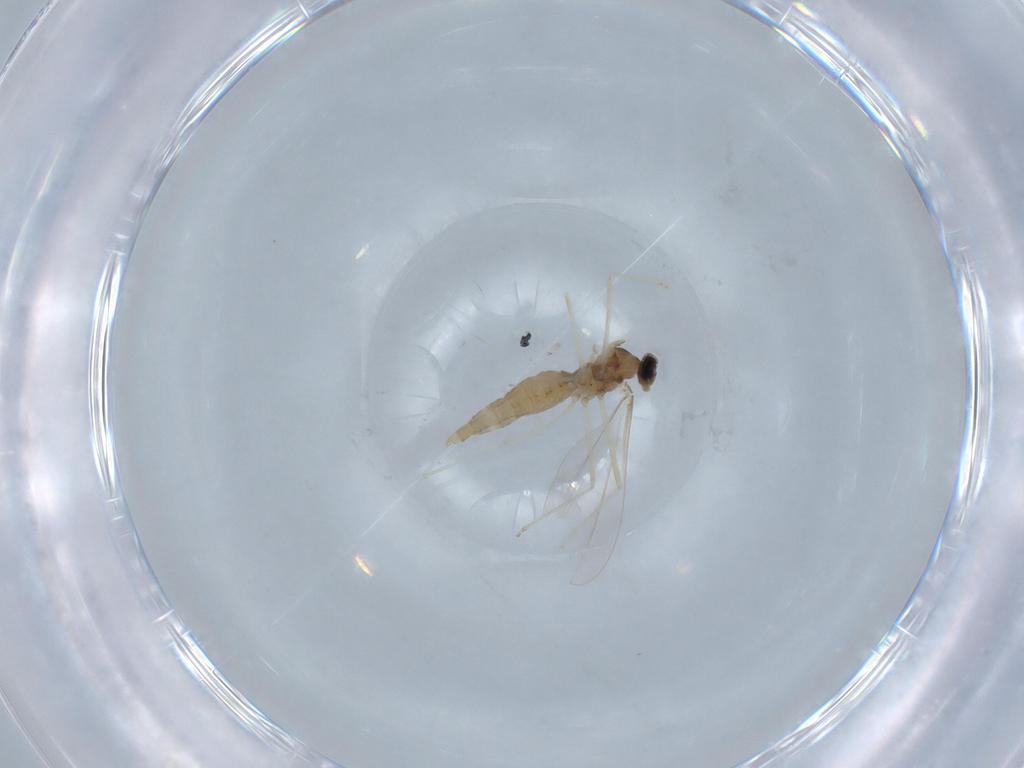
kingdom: Animalia
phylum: Arthropoda
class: Insecta
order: Diptera
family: Cecidomyiidae
